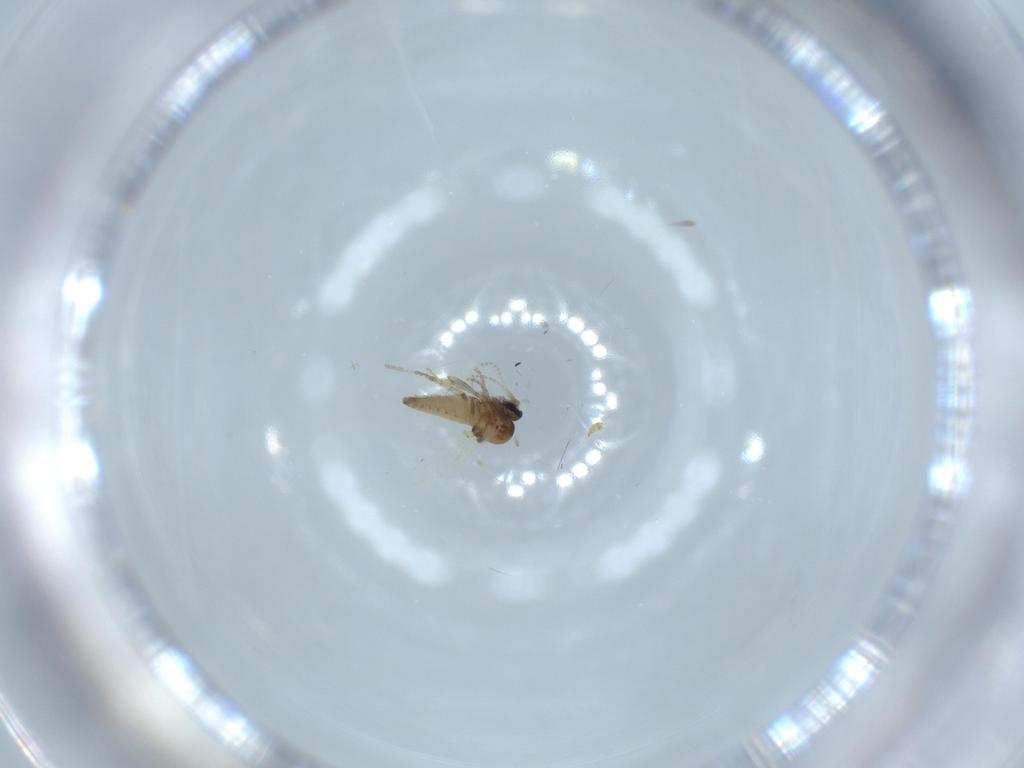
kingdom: Animalia
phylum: Arthropoda
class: Insecta
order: Diptera
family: Ceratopogonidae
